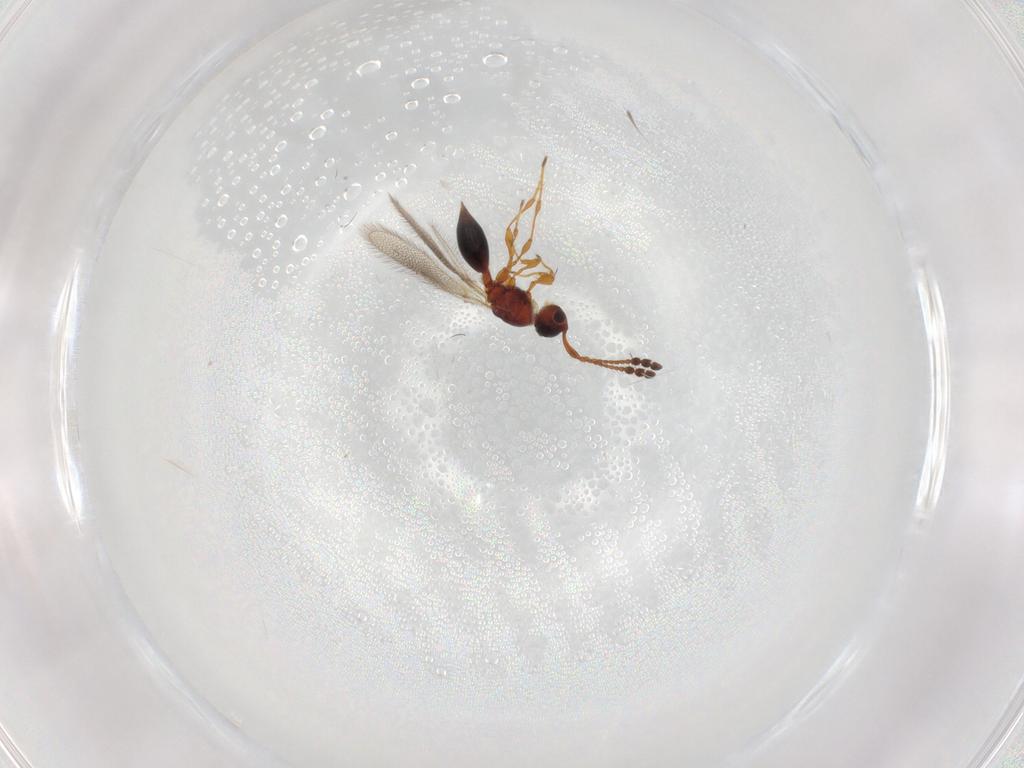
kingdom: Animalia
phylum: Arthropoda
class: Insecta
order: Hymenoptera
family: Diapriidae
